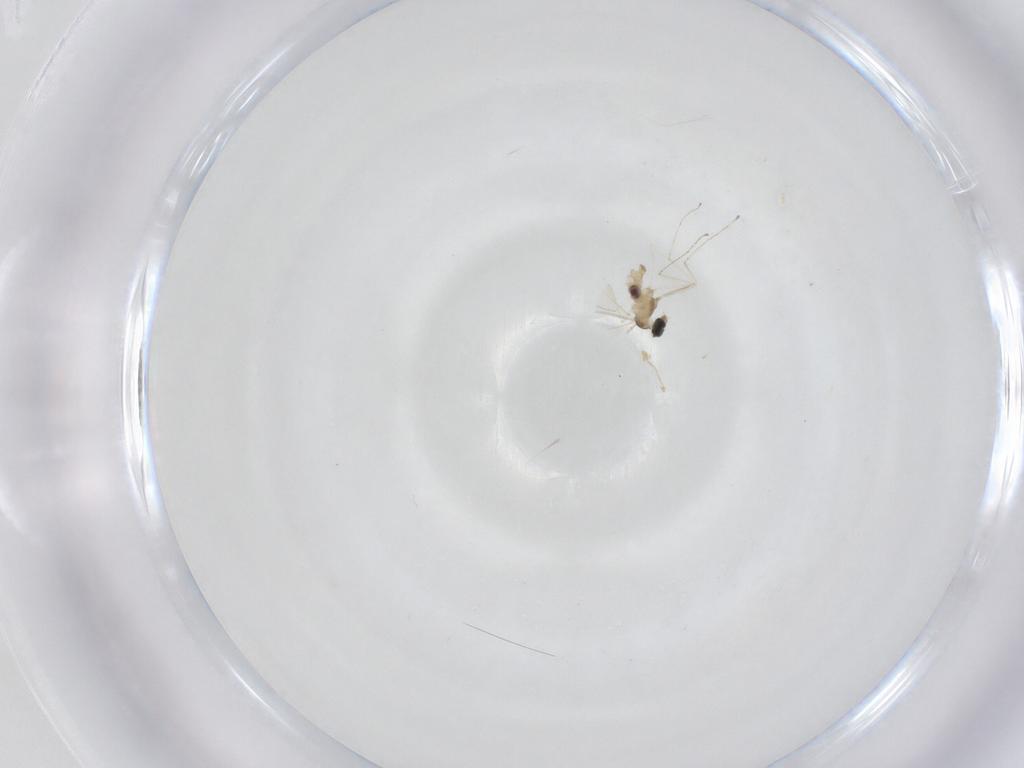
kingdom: Animalia
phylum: Arthropoda
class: Insecta
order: Diptera
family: Cecidomyiidae
